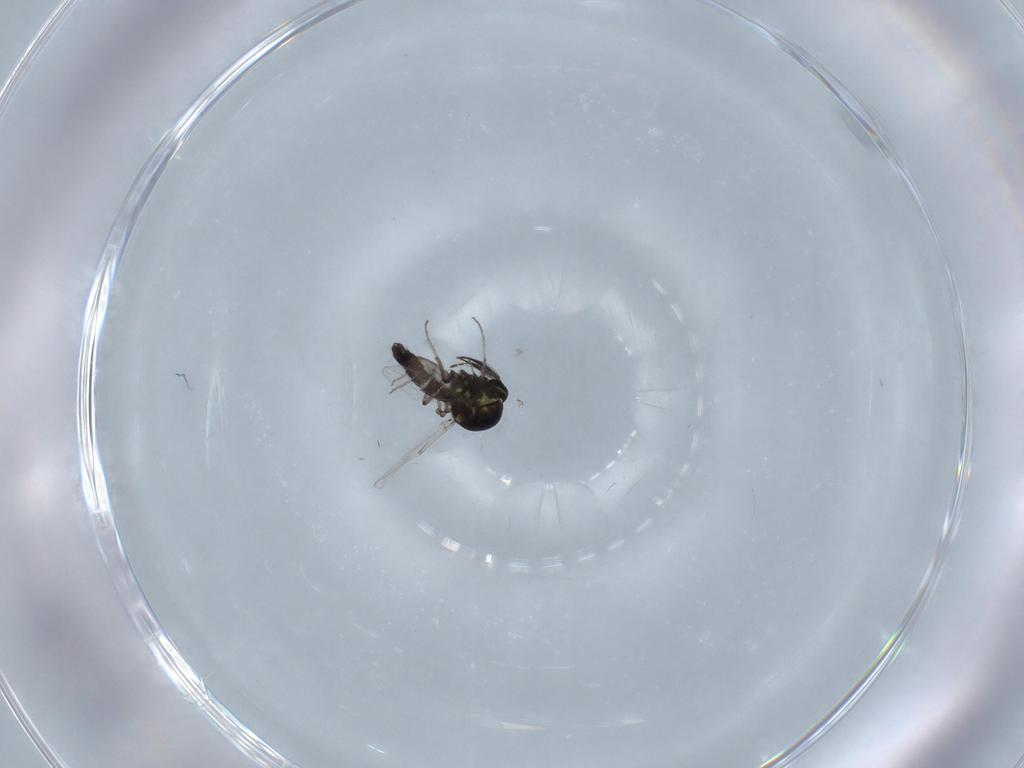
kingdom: Animalia
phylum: Arthropoda
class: Insecta
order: Diptera
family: Ceratopogonidae
